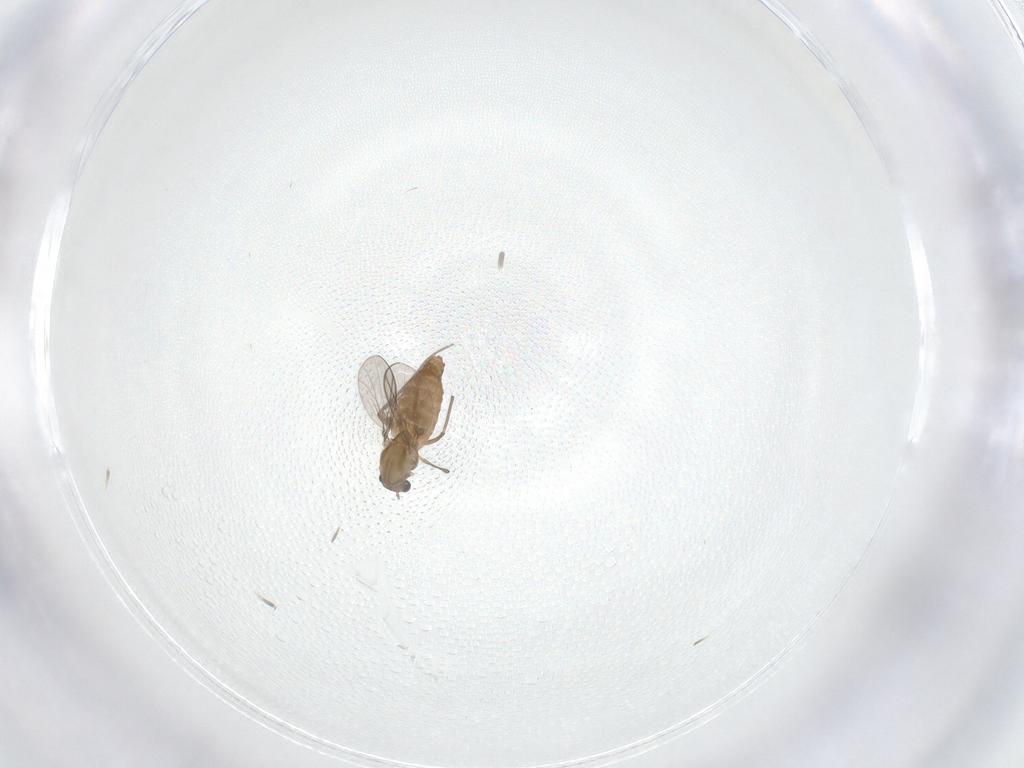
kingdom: Animalia
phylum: Arthropoda
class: Insecta
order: Diptera
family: Chironomidae
